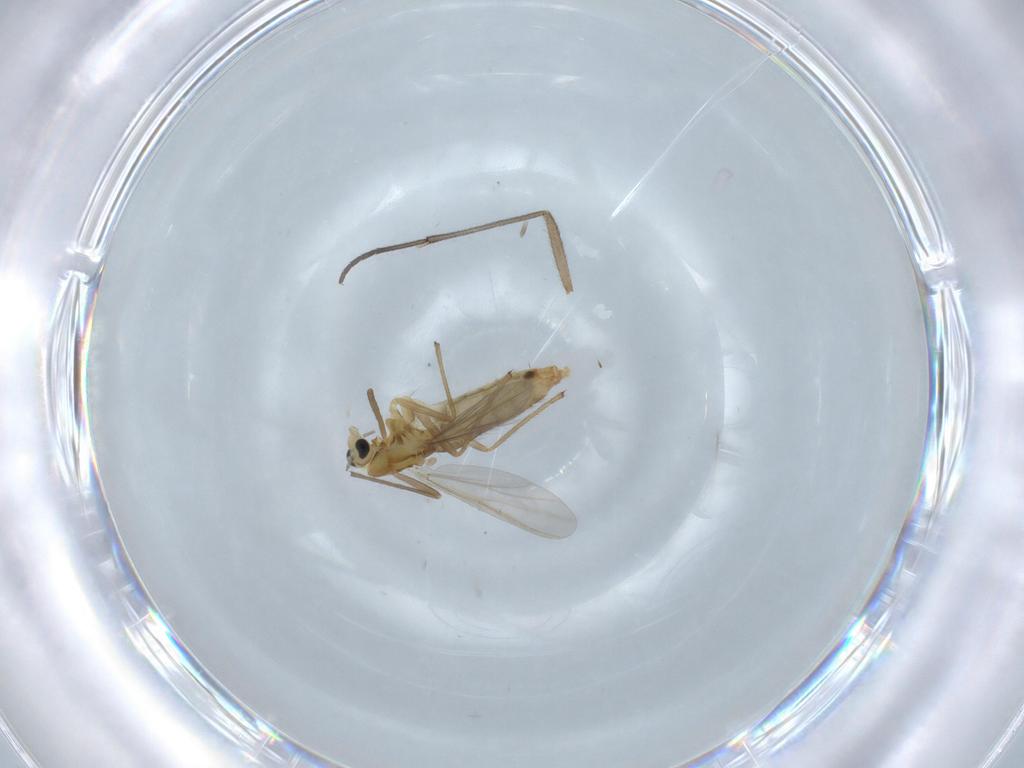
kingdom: Animalia
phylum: Arthropoda
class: Insecta
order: Diptera
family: Chironomidae
